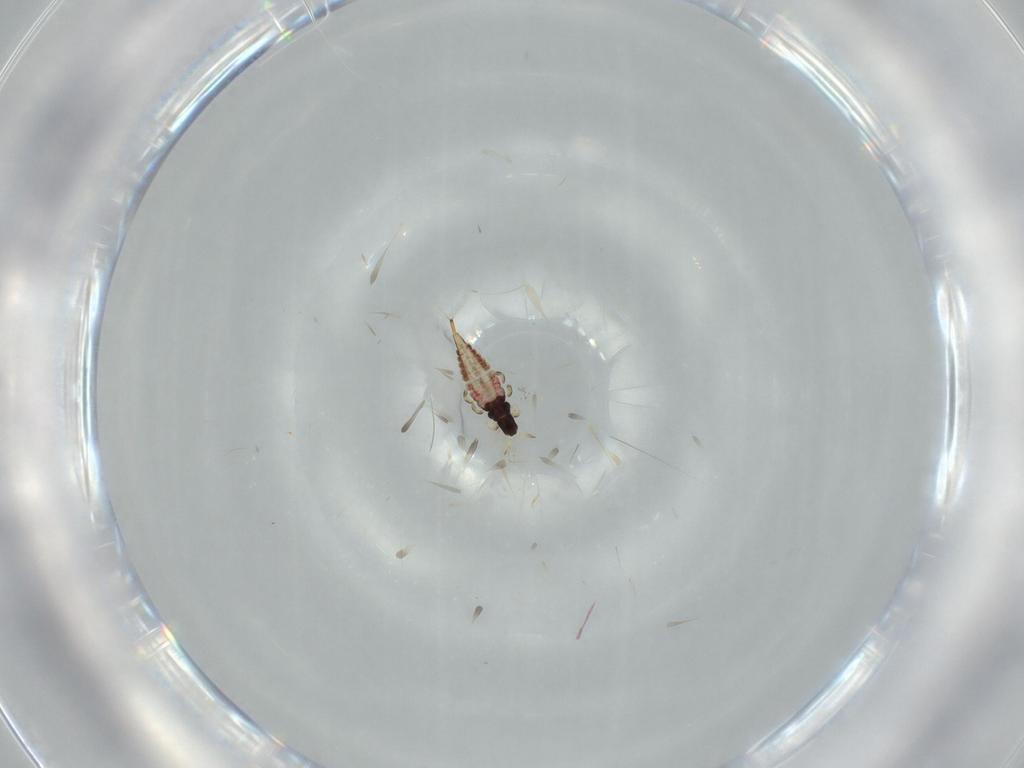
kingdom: Animalia
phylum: Arthropoda
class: Insecta
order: Thysanoptera
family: Phlaeothripidae
